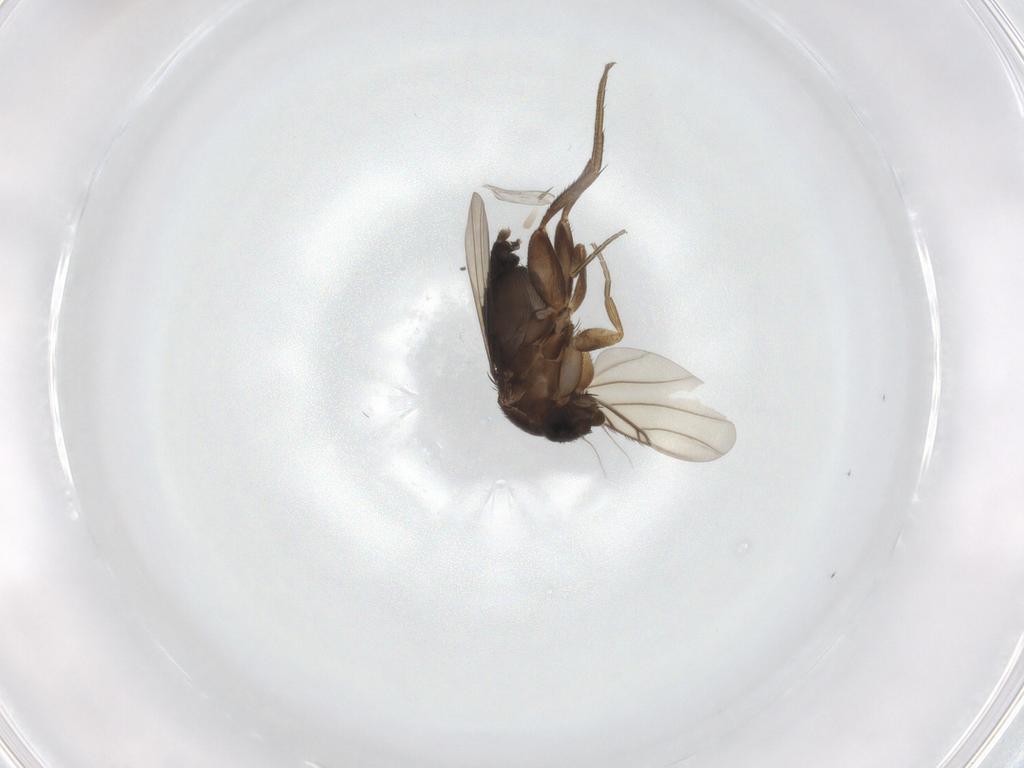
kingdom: Animalia
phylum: Arthropoda
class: Insecta
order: Diptera
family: Phoridae
